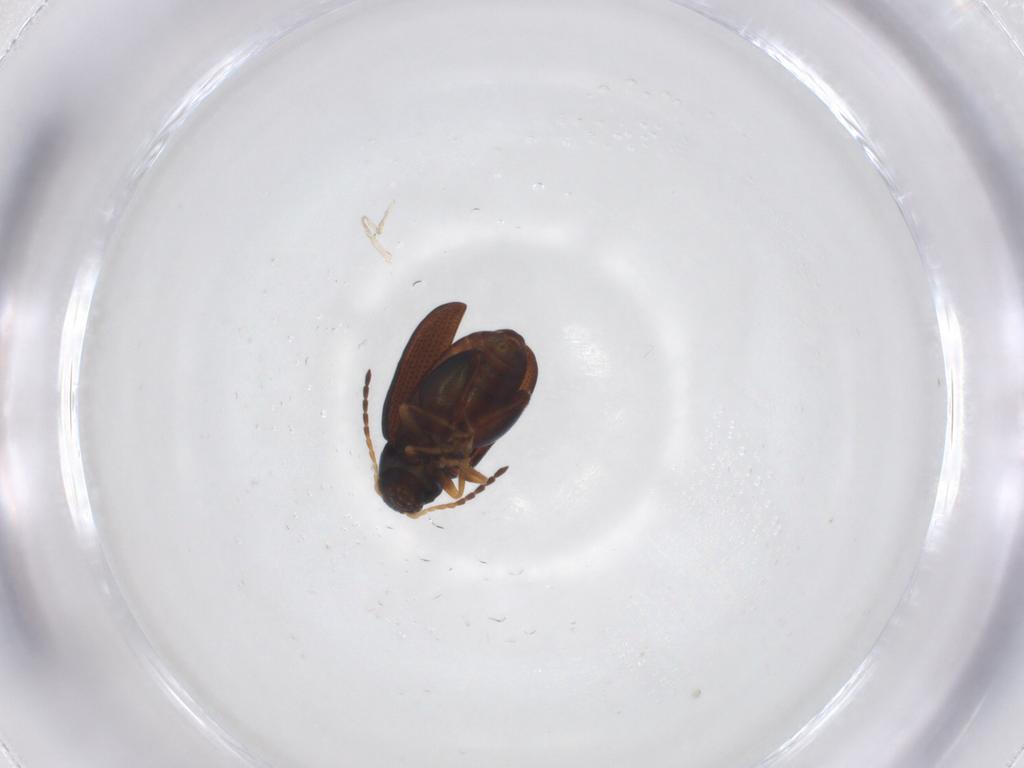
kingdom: Animalia
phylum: Arthropoda
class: Insecta
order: Coleoptera
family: Chrysomelidae
